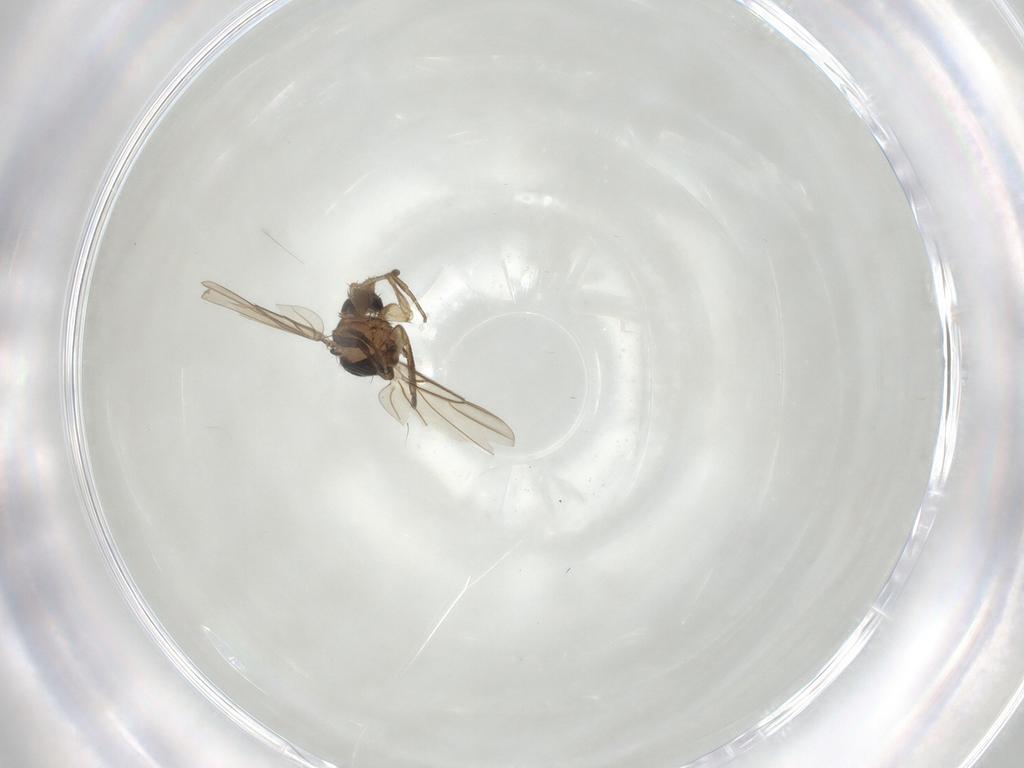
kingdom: Animalia
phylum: Arthropoda
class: Insecta
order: Diptera
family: Phoridae
